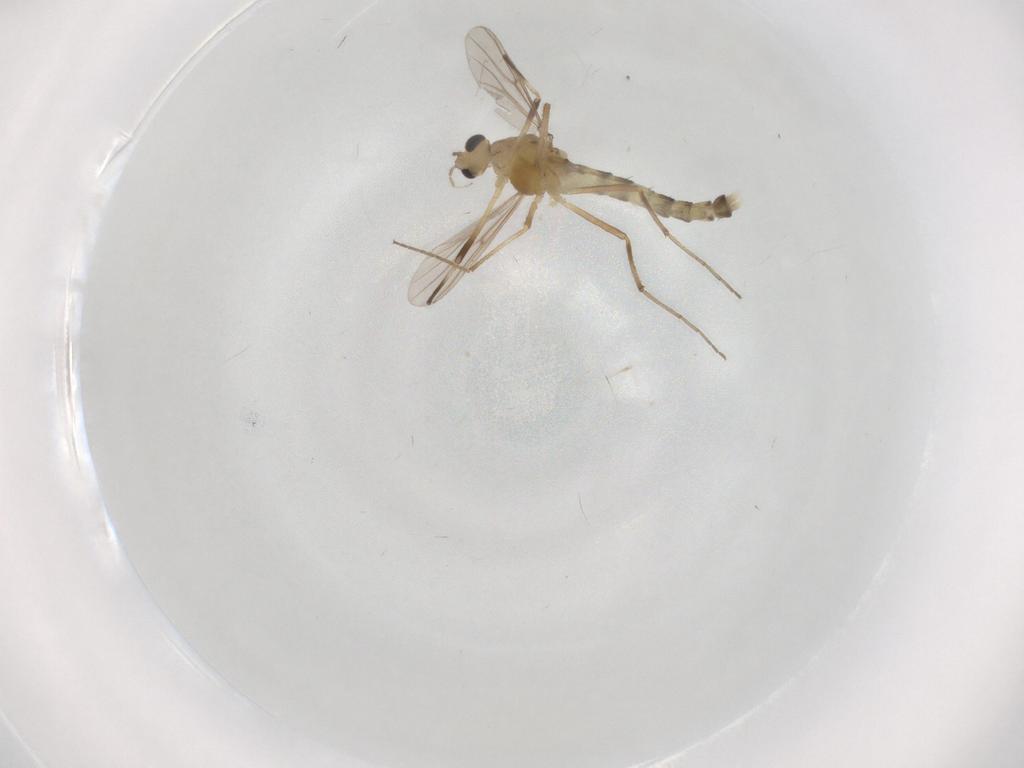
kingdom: Animalia
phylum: Arthropoda
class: Insecta
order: Diptera
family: Chironomidae
